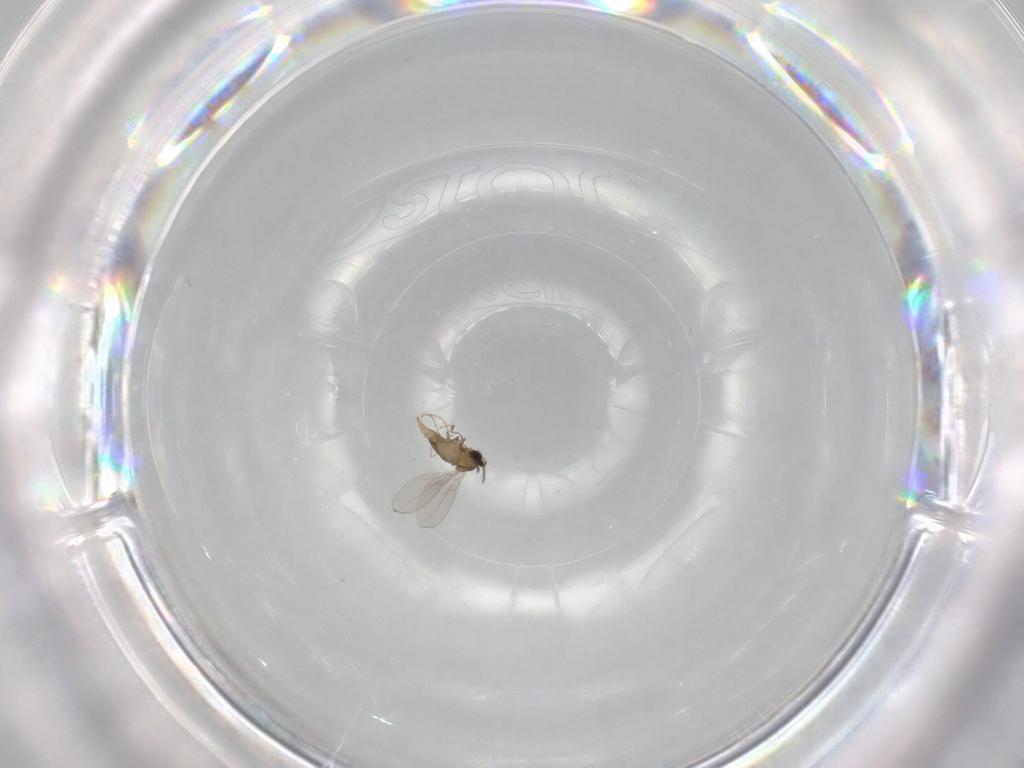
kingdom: Animalia
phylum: Arthropoda
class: Insecta
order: Diptera
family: Cecidomyiidae
